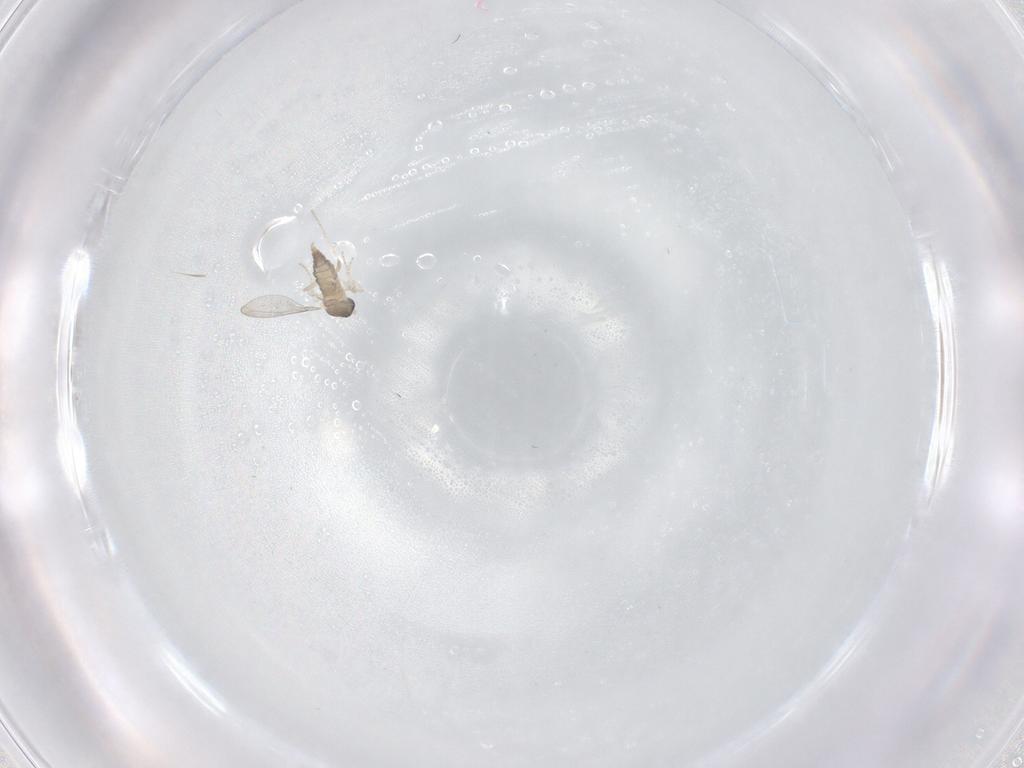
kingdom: Animalia
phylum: Arthropoda
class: Insecta
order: Diptera
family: Cecidomyiidae
